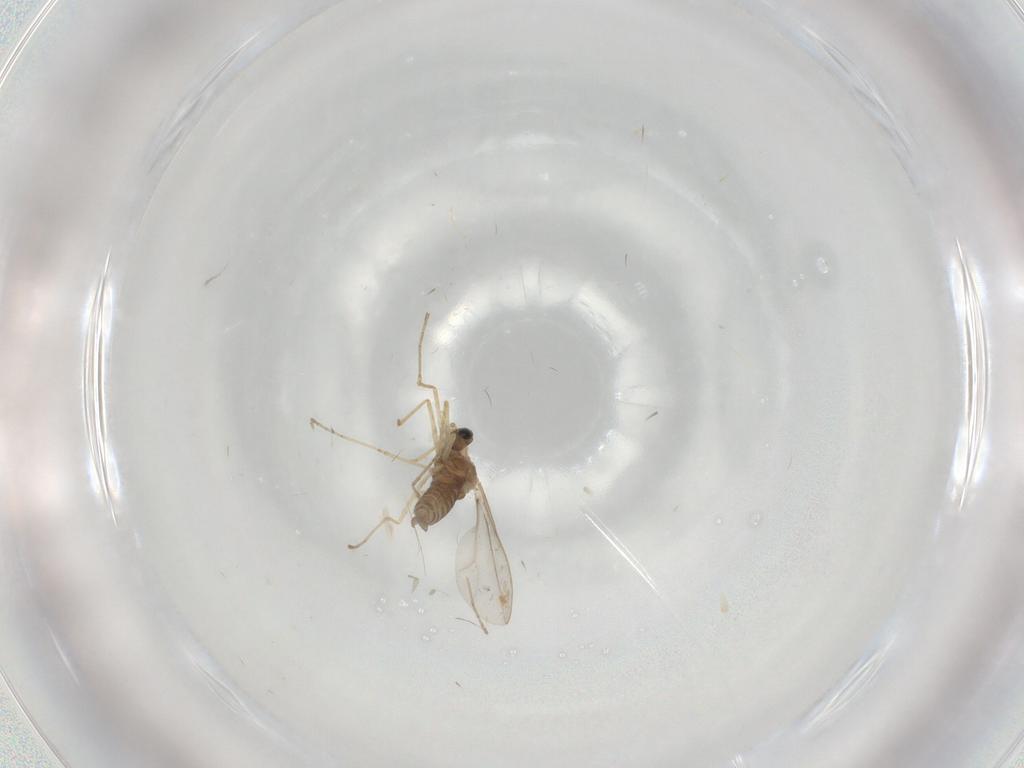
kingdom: Animalia
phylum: Arthropoda
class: Insecta
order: Diptera
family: Cecidomyiidae
